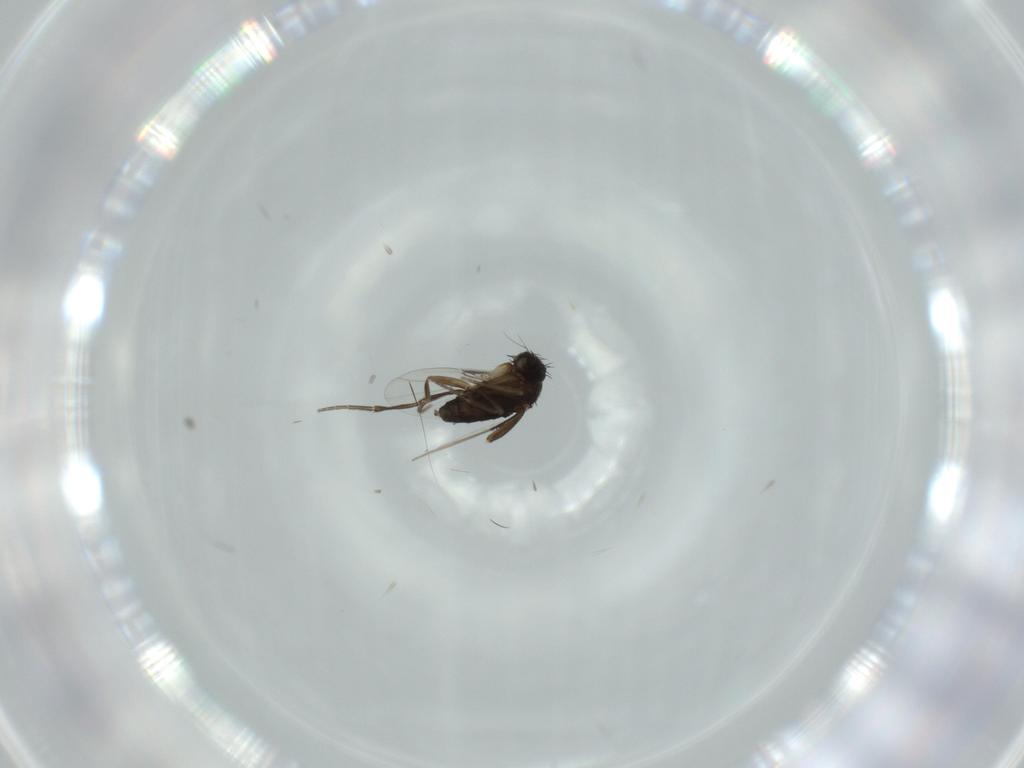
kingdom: Animalia
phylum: Arthropoda
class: Insecta
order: Diptera
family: Phoridae
